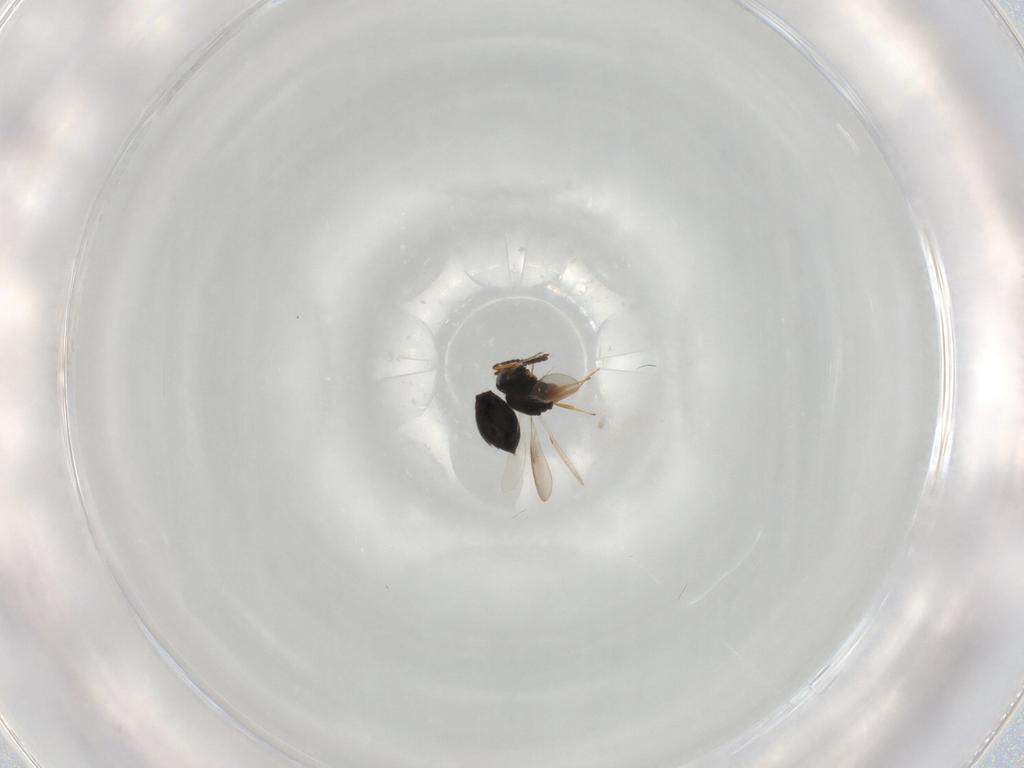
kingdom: Animalia
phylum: Arthropoda
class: Insecta
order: Hymenoptera
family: Scelionidae
